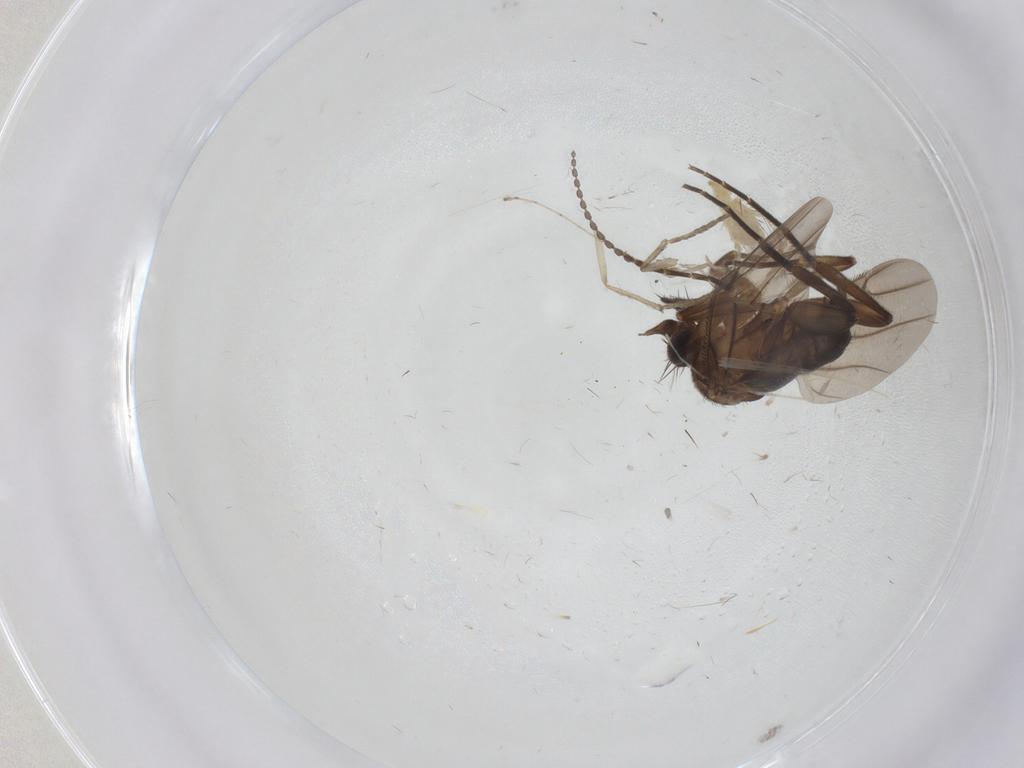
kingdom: Animalia
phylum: Arthropoda
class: Insecta
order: Diptera
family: Phoridae
